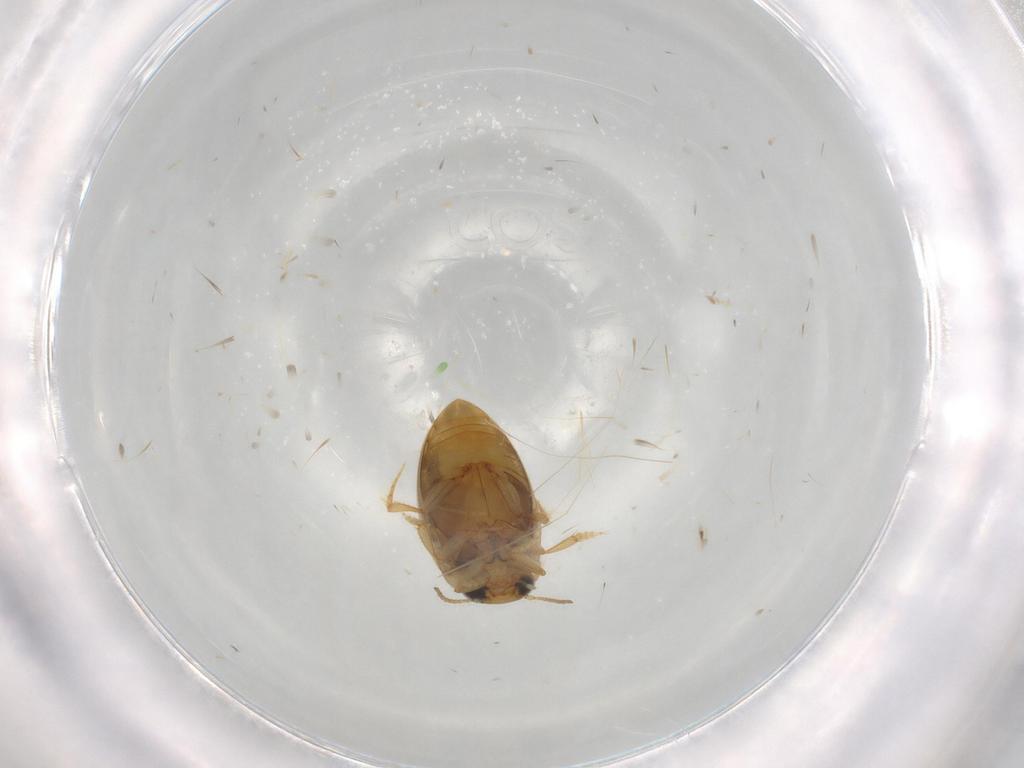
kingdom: Animalia
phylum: Arthropoda
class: Insecta
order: Coleoptera
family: Dytiscidae
